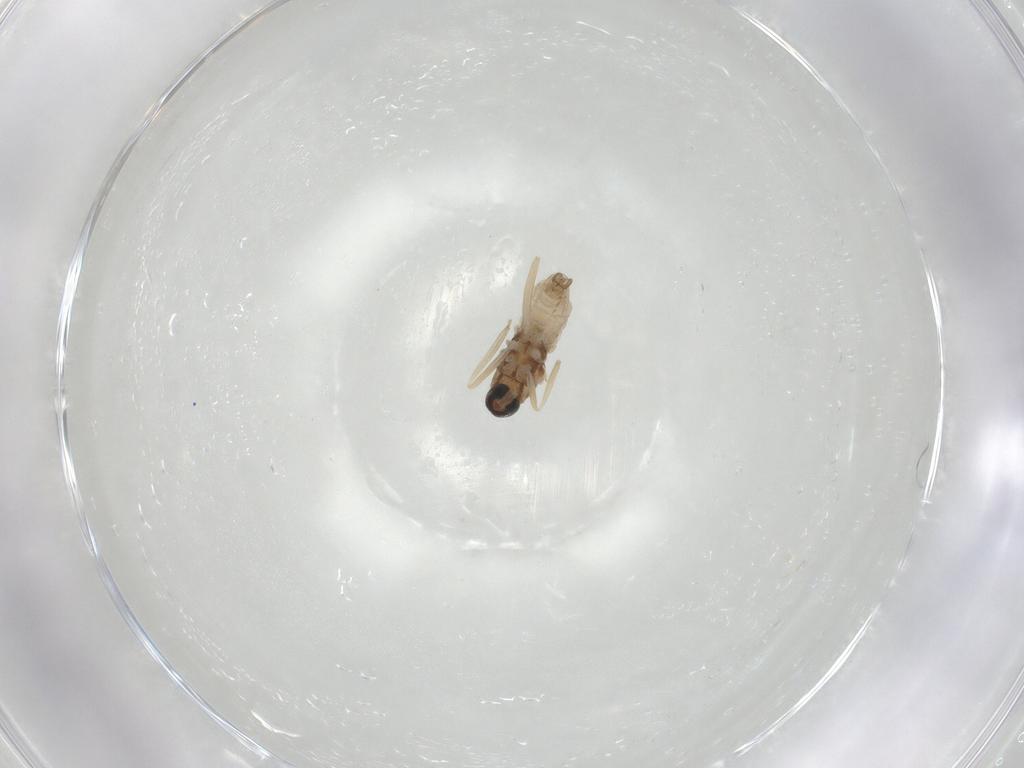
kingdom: Animalia
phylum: Arthropoda
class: Insecta
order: Diptera
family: Cecidomyiidae
